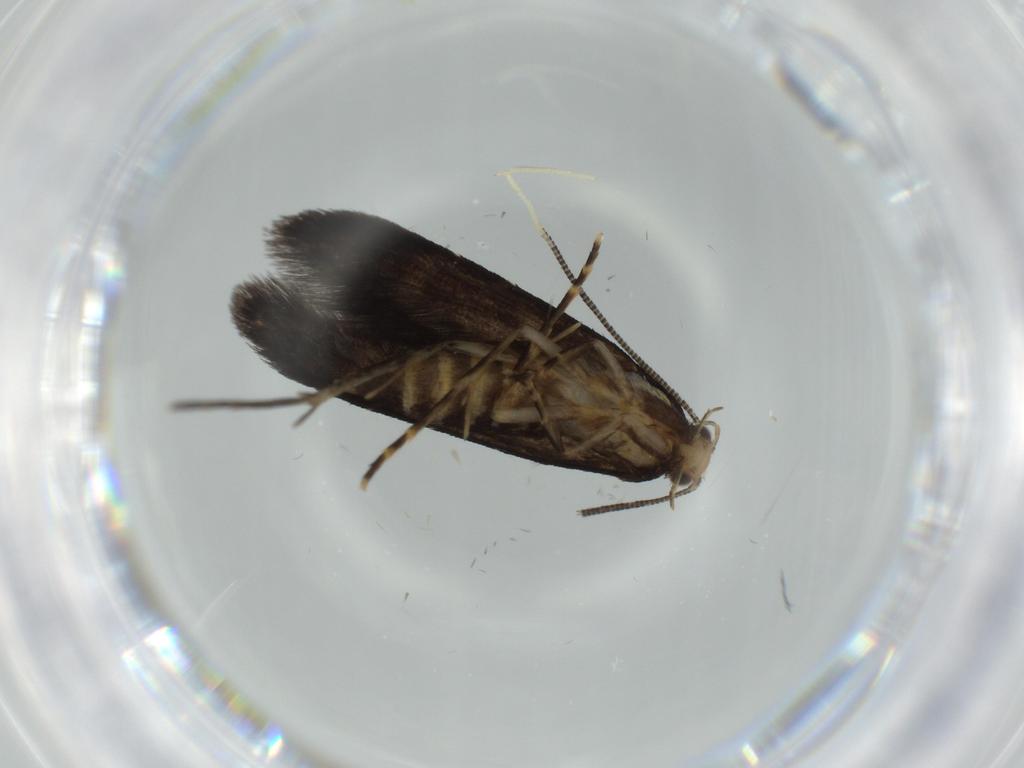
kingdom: Animalia
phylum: Arthropoda
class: Insecta
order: Lepidoptera
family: Tineidae
